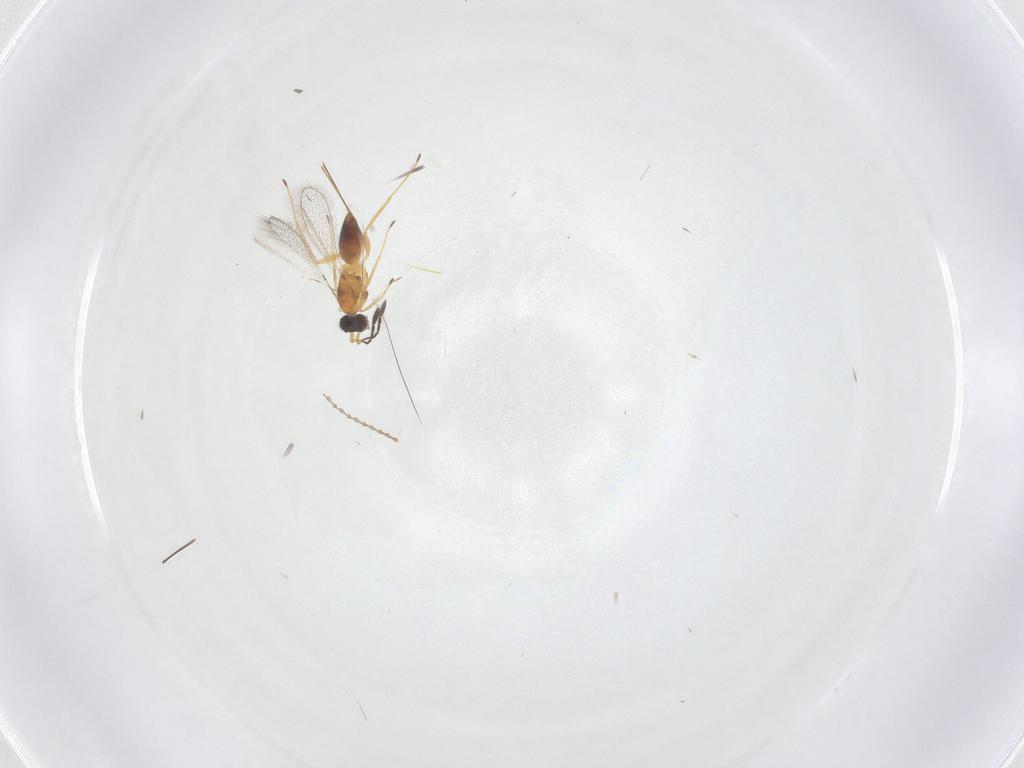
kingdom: Animalia
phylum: Arthropoda
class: Insecta
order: Hymenoptera
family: Mymaridae
